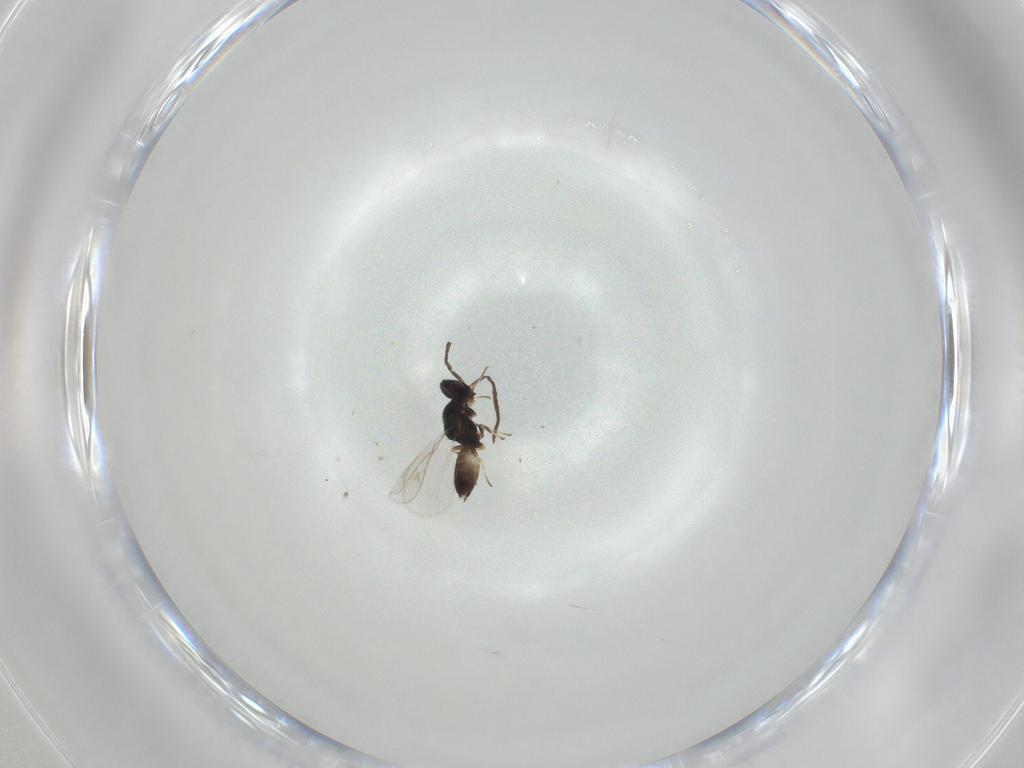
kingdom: Animalia
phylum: Arthropoda
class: Insecta
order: Hymenoptera
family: Eulophidae
